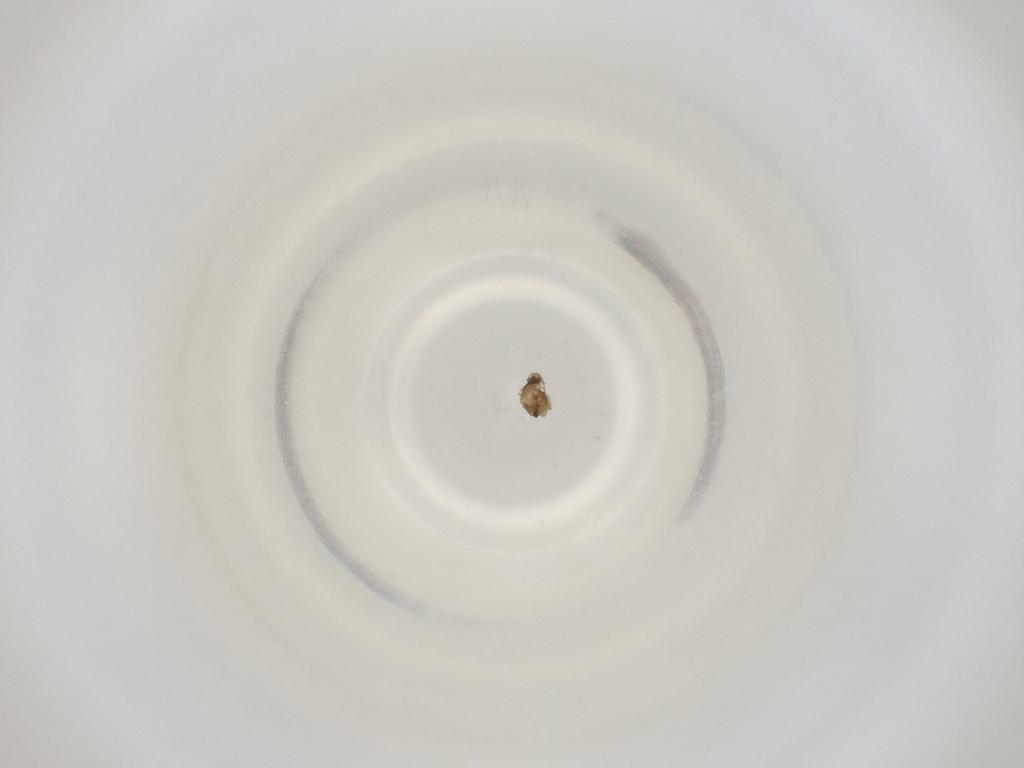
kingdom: Animalia
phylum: Arthropoda
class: Insecta
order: Diptera
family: Cecidomyiidae
